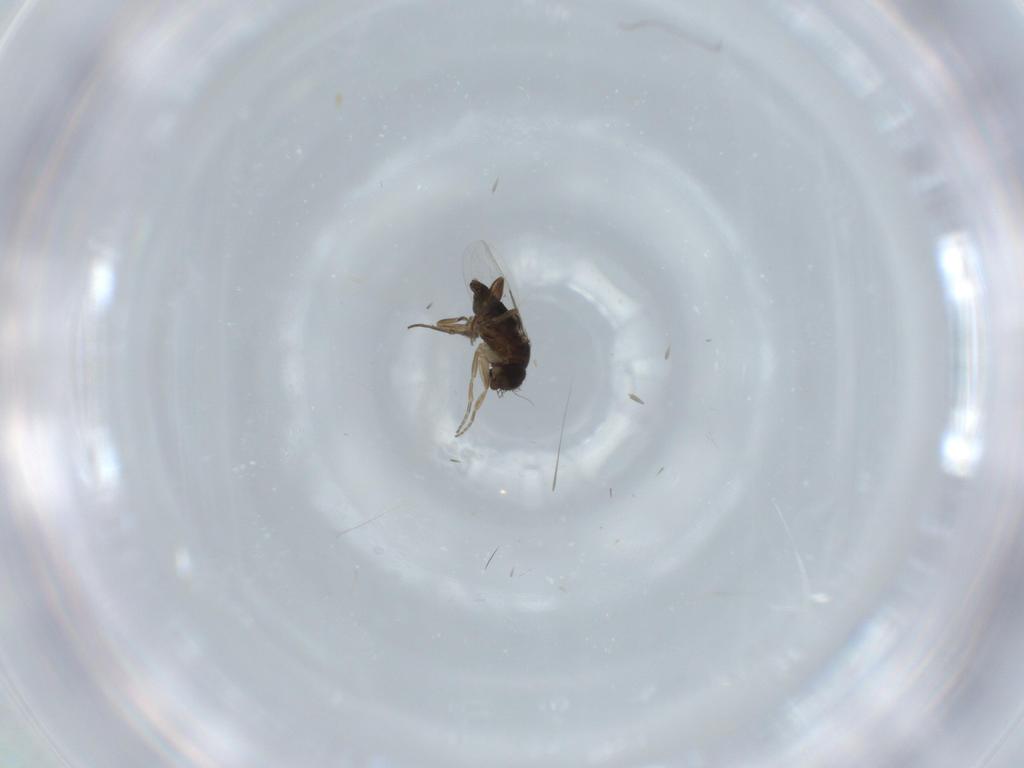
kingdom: Animalia
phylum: Arthropoda
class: Insecta
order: Diptera
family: Phoridae
